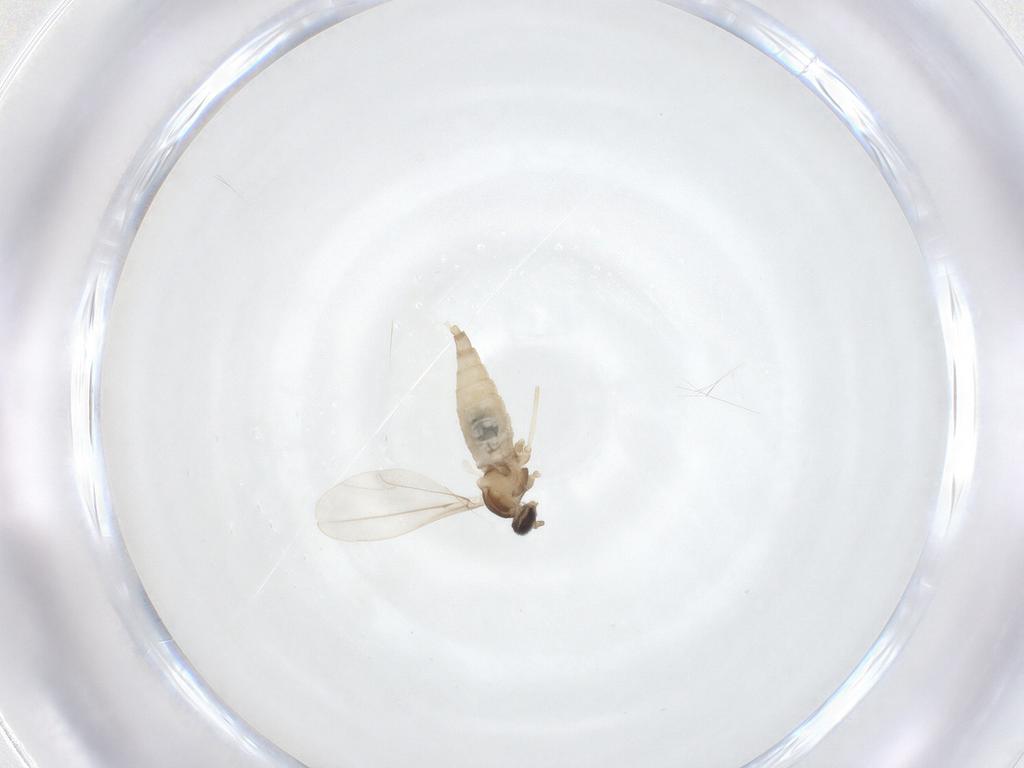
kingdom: Animalia
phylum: Arthropoda
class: Insecta
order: Diptera
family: Cecidomyiidae
